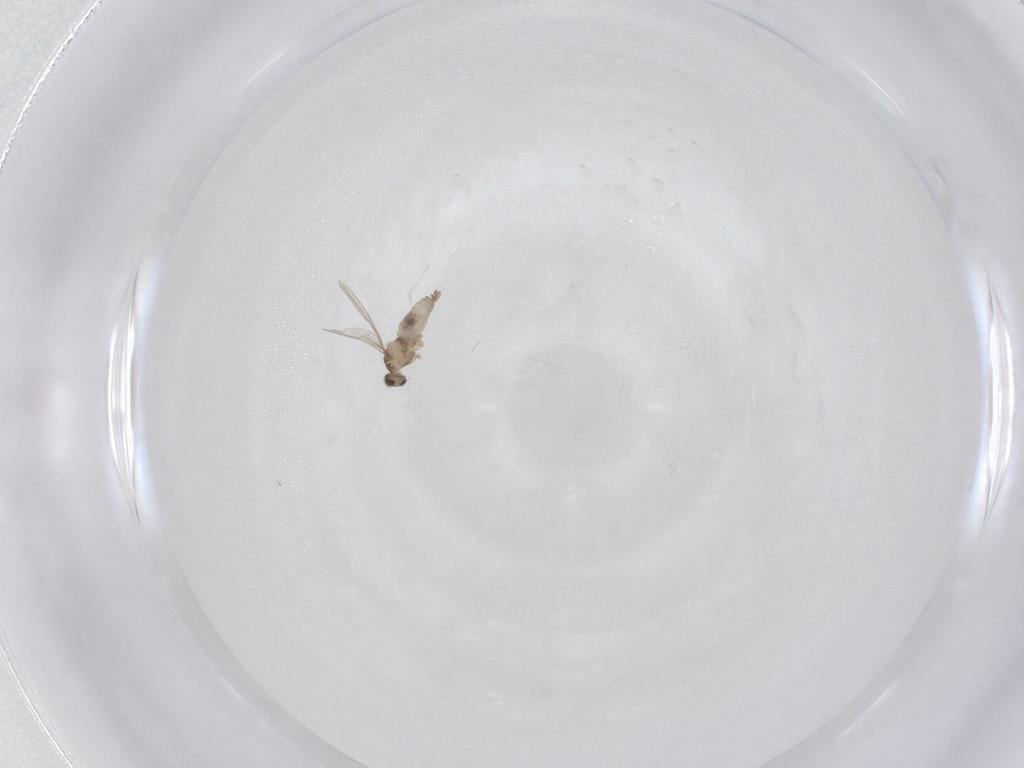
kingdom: Animalia
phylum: Arthropoda
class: Insecta
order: Diptera
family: Cecidomyiidae
